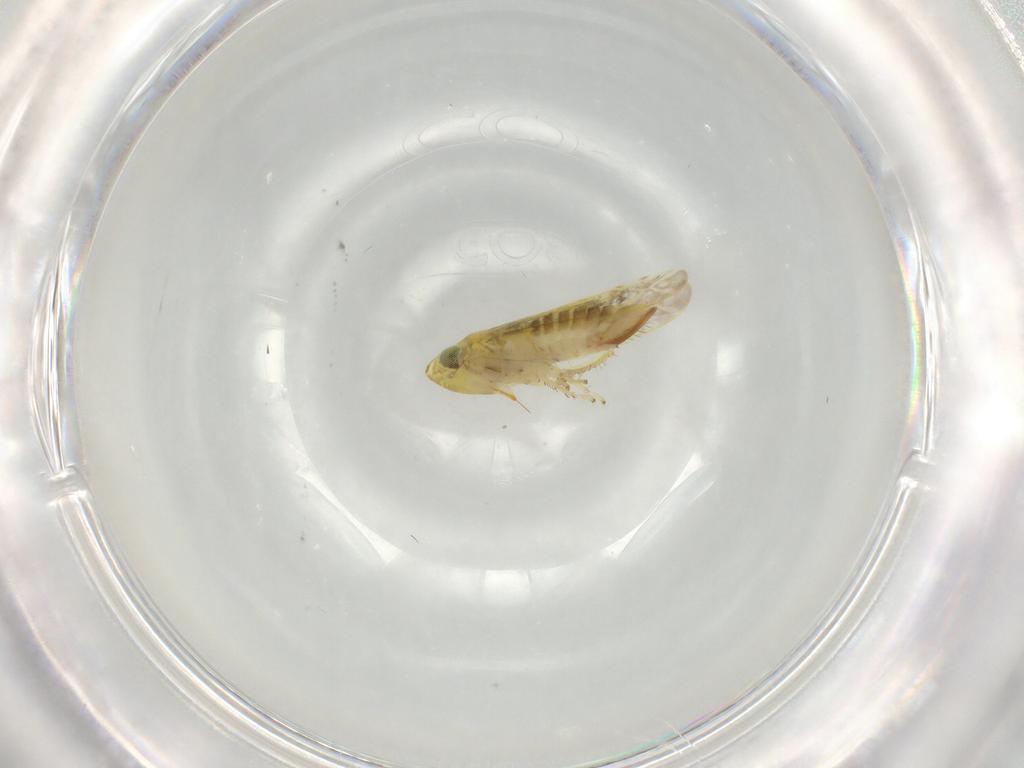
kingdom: Animalia
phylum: Arthropoda
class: Insecta
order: Hemiptera
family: Cicadellidae
